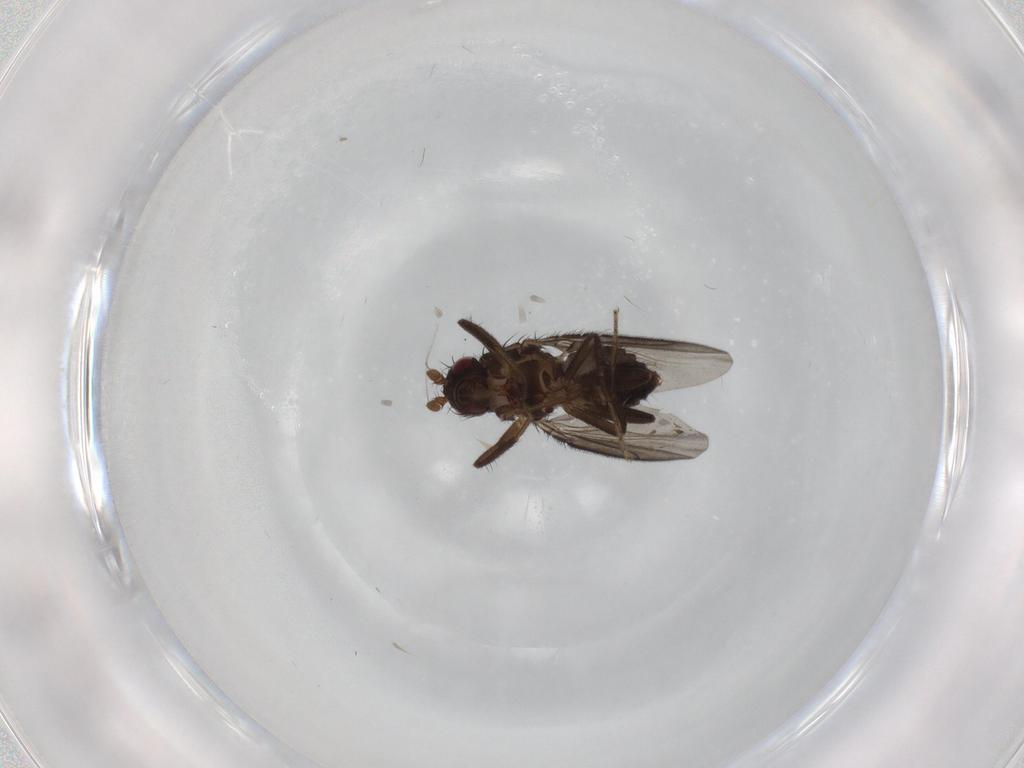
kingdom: Animalia
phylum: Arthropoda
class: Insecta
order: Diptera
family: Sphaeroceridae
